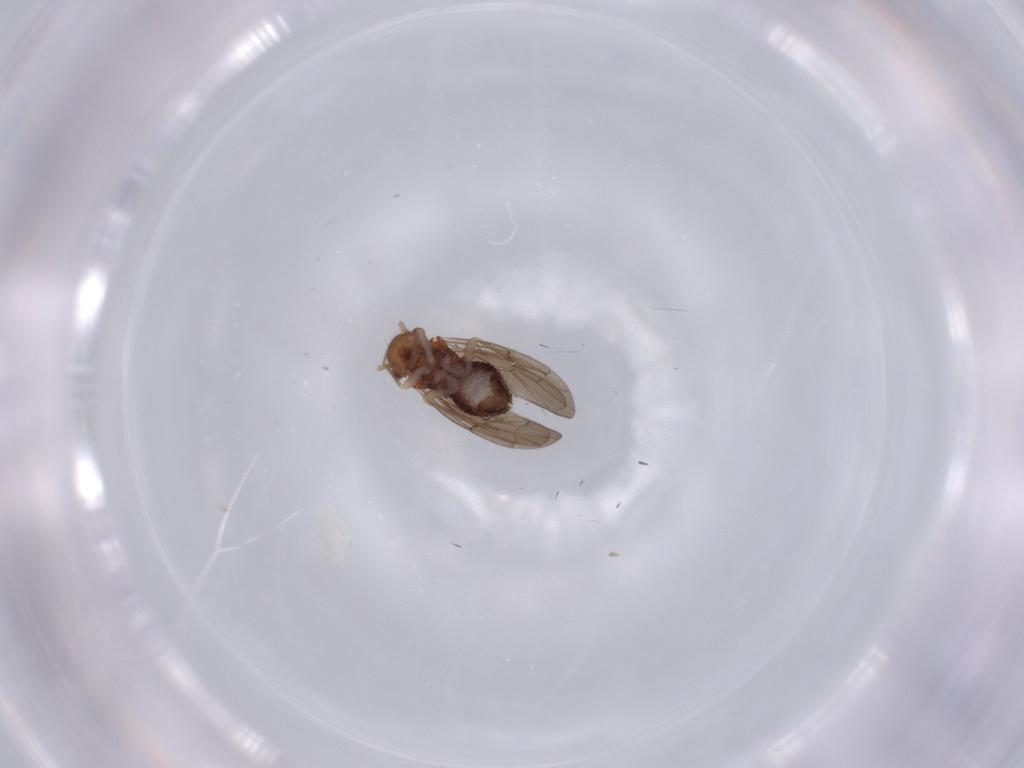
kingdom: Animalia
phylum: Arthropoda
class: Insecta
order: Psocodea
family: Ectopsocidae
